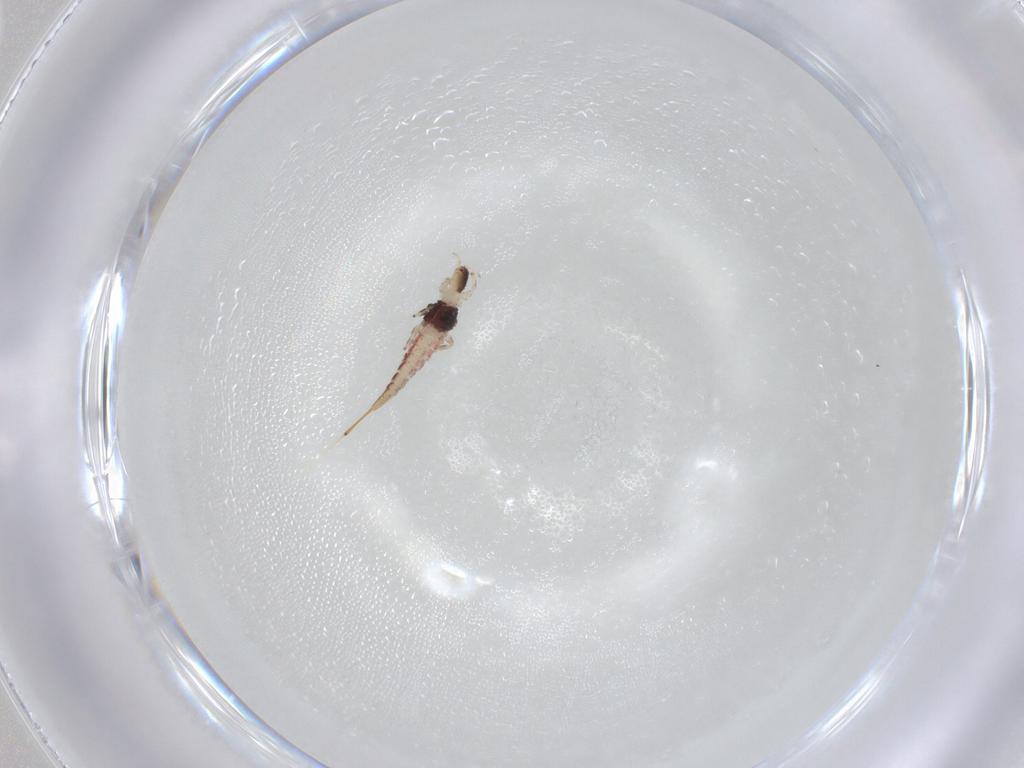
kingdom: Animalia
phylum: Arthropoda
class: Insecta
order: Thysanoptera
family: Phlaeothripidae
